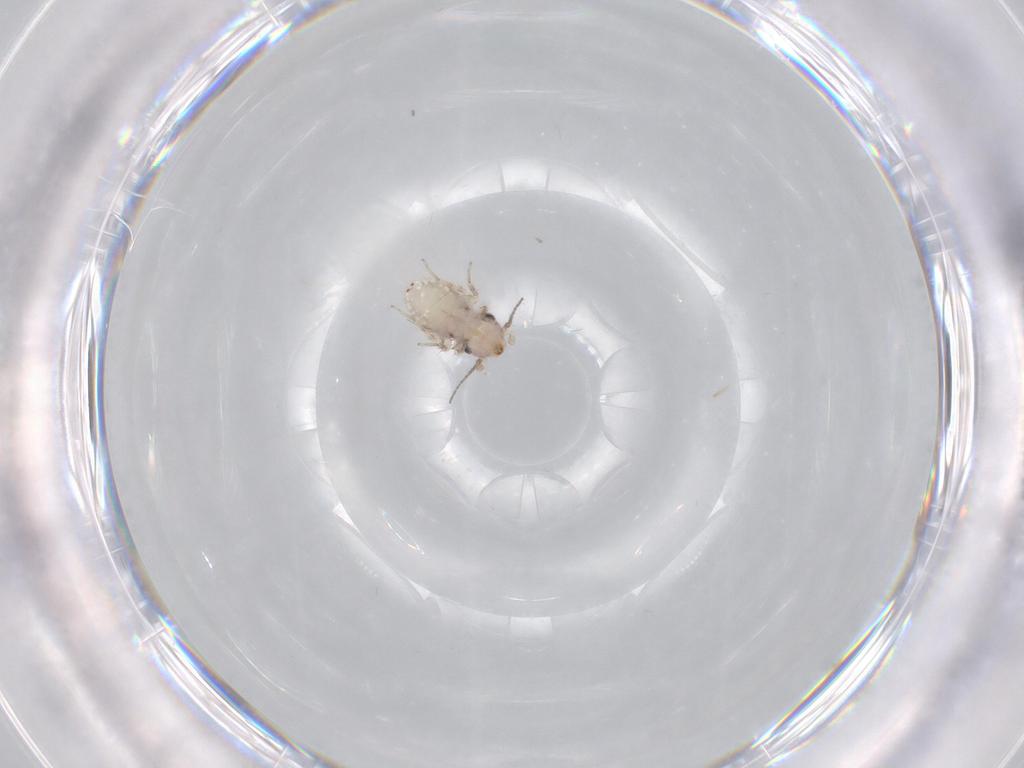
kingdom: Animalia
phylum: Arthropoda
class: Insecta
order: Psocodea
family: Lepidopsocidae
